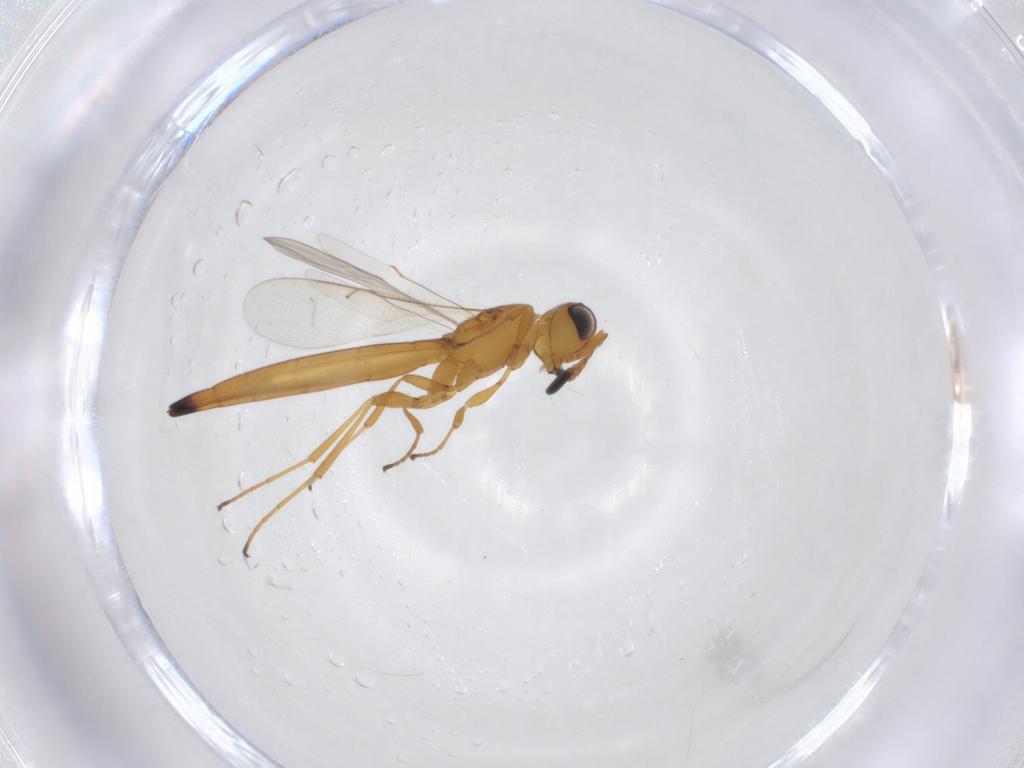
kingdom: Animalia
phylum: Arthropoda
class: Insecta
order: Hymenoptera
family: Scelionidae
